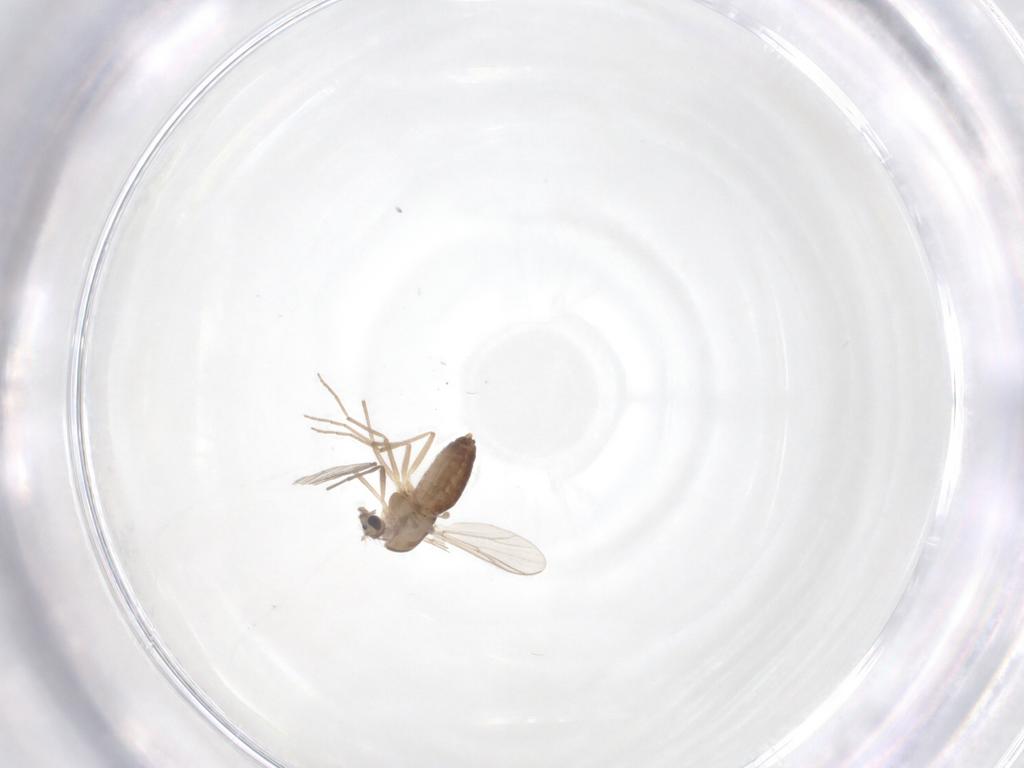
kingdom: Animalia
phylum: Arthropoda
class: Insecta
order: Diptera
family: Chironomidae
